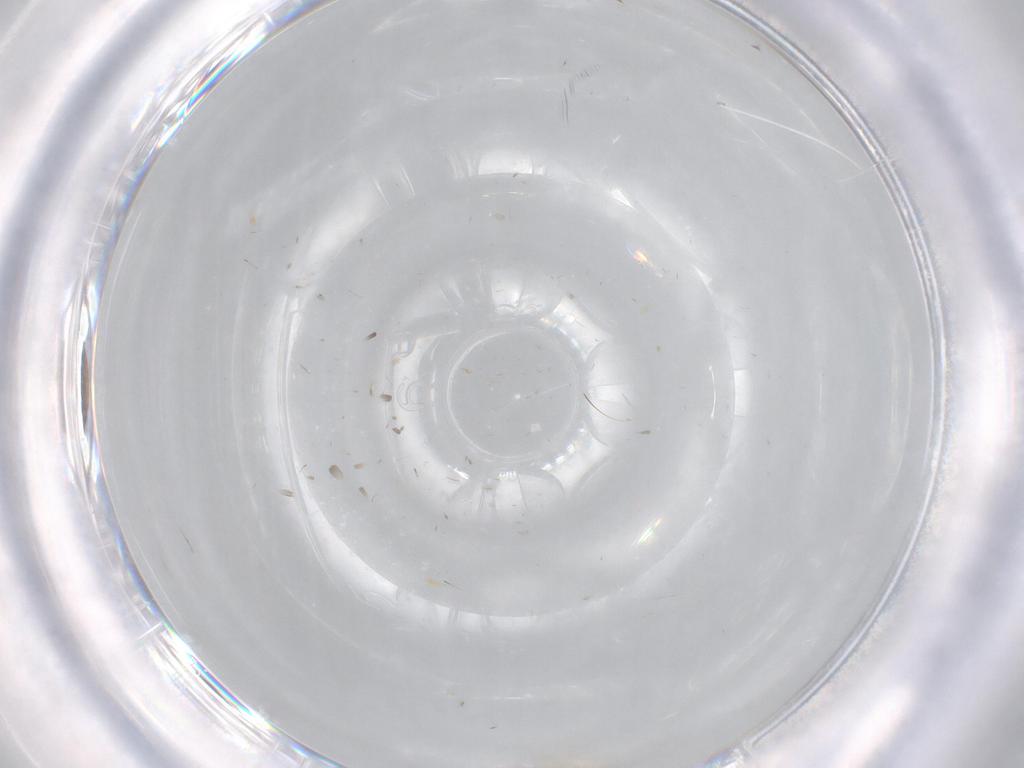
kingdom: Animalia
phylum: Arthropoda
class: Insecta
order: Diptera
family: Cecidomyiidae
